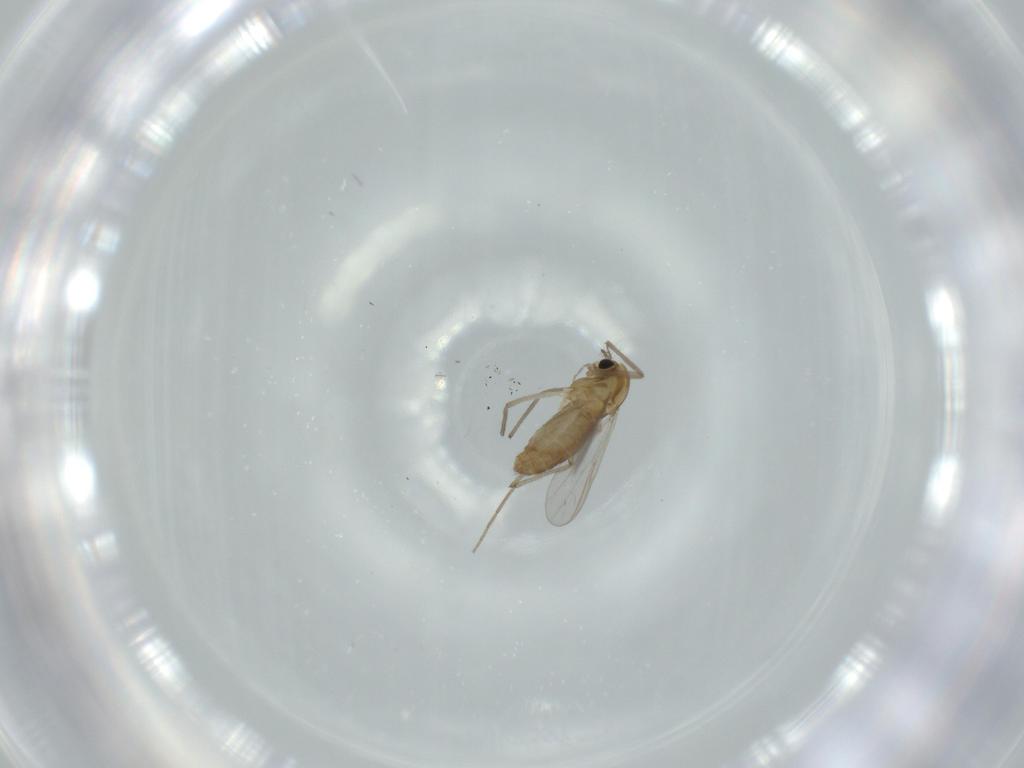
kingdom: Animalia
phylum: Arthropoda
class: Insecta
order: Diptera
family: Chironomidae
